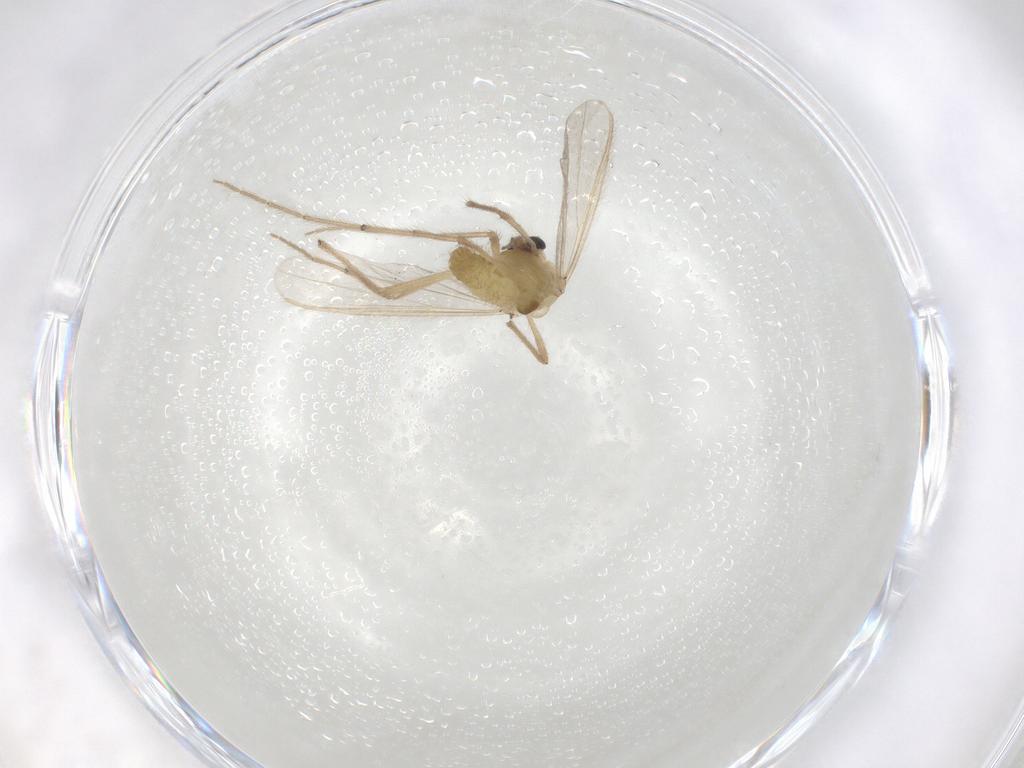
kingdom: Animalia
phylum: Arthropoda
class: Insecta
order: Diptera
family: Chironomidae
